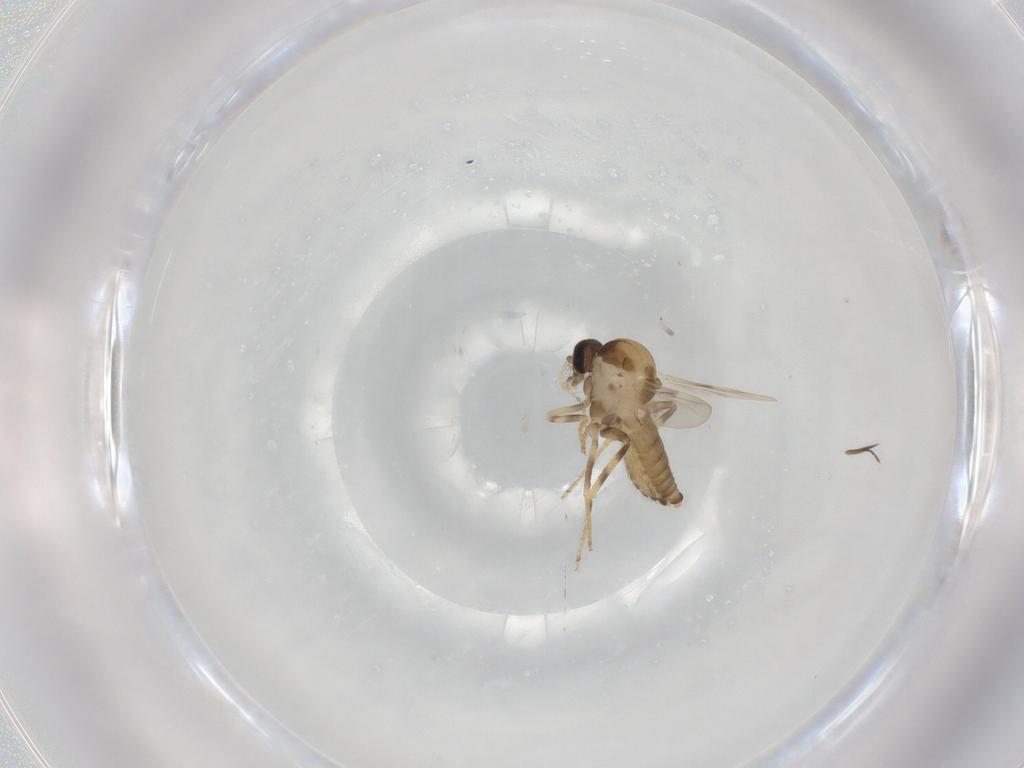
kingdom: Animalia
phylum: Arthropoda
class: Insecta
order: Diptera
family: Ceratopogonidae
